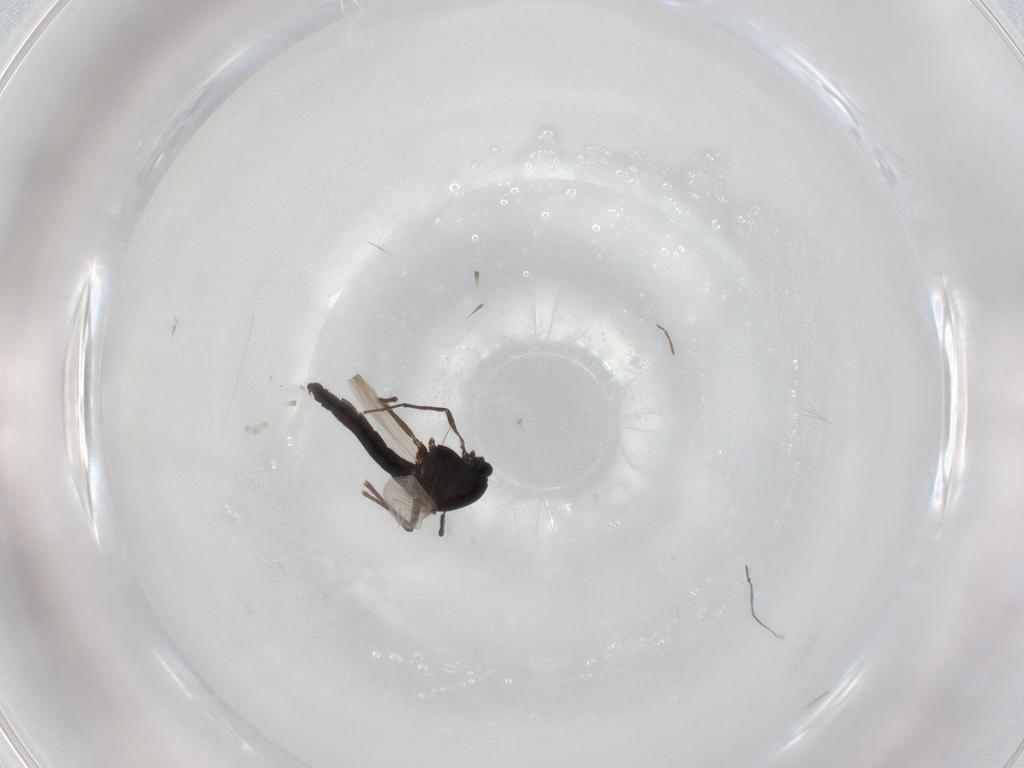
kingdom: Animalia
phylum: Arthropoda
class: Insecta
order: Diptera
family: Chironomidae
